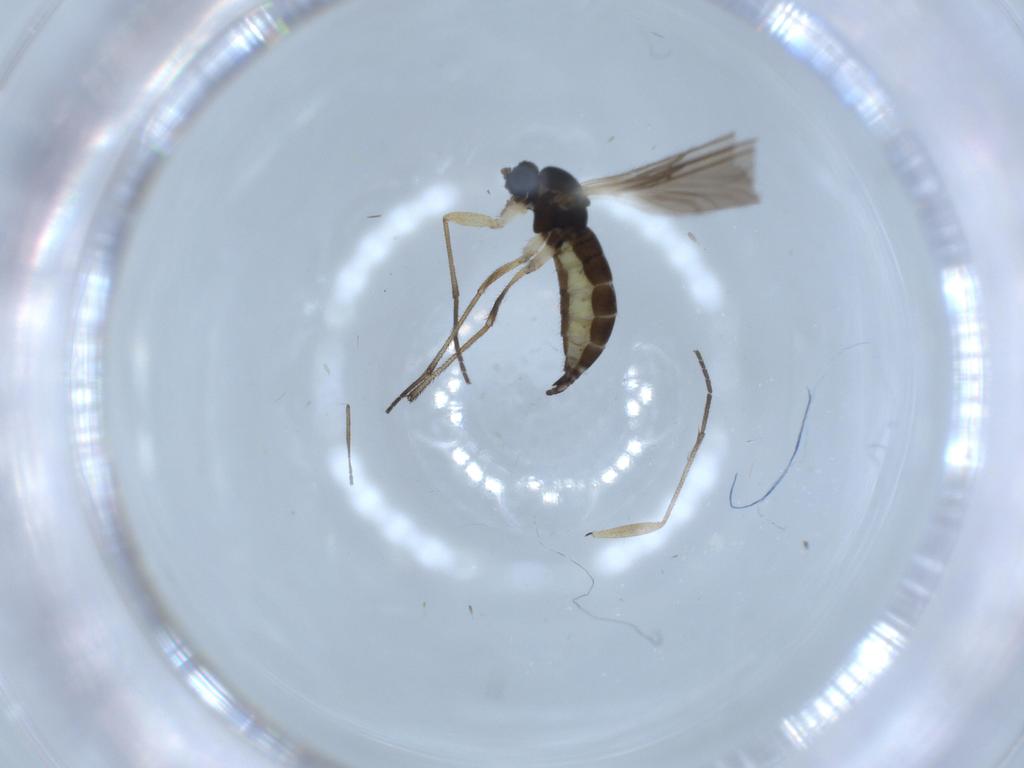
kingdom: Animalia
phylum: Arthropoda
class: Insecta
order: Diptera
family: Sciaridae
